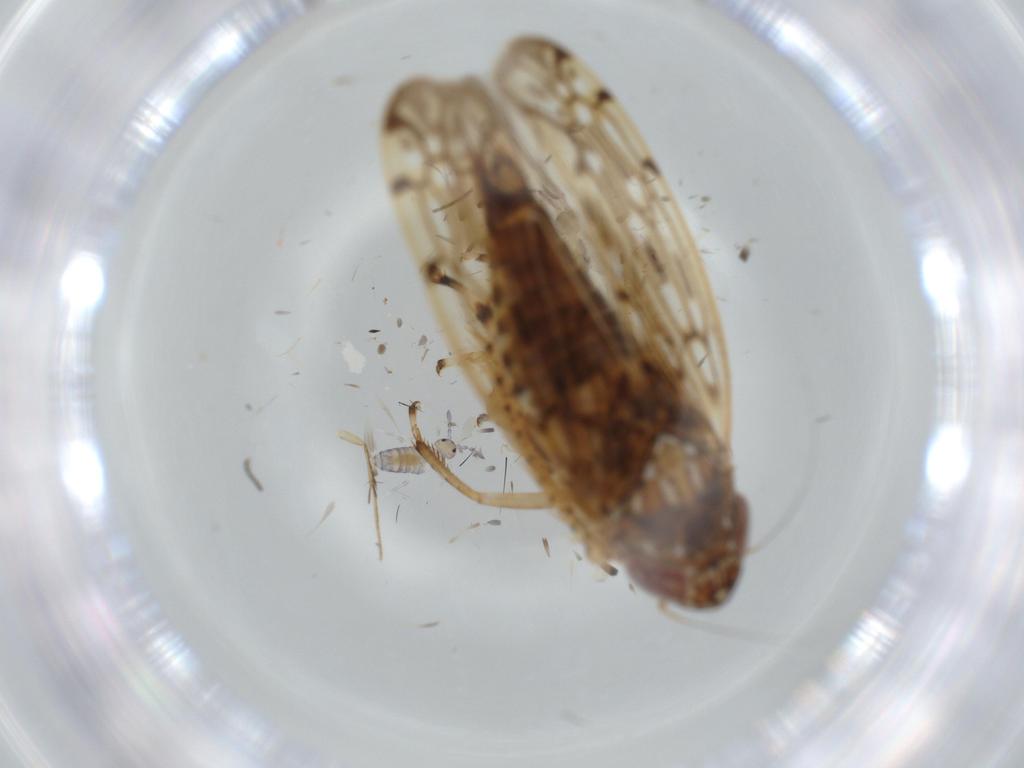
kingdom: Animalia
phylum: Arthropoda
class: Insecta
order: Hemiptera
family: Cicadellidae
